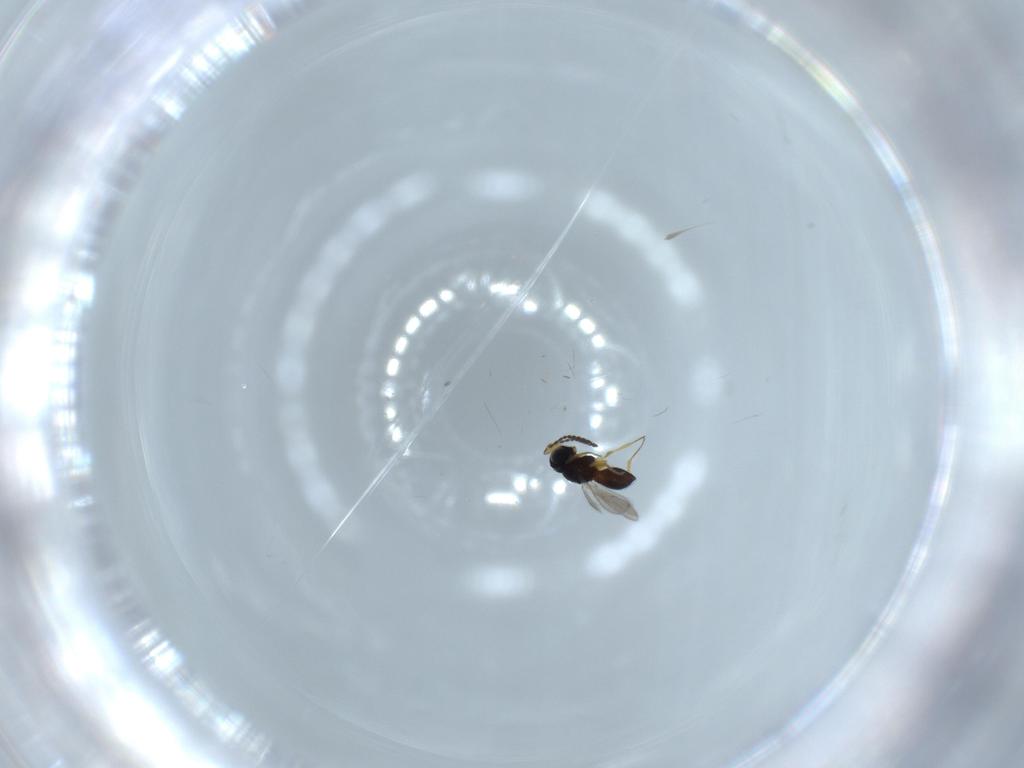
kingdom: Animalia
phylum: Arthropoda
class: Insecta
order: Hymenoptera
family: Scelionidae
